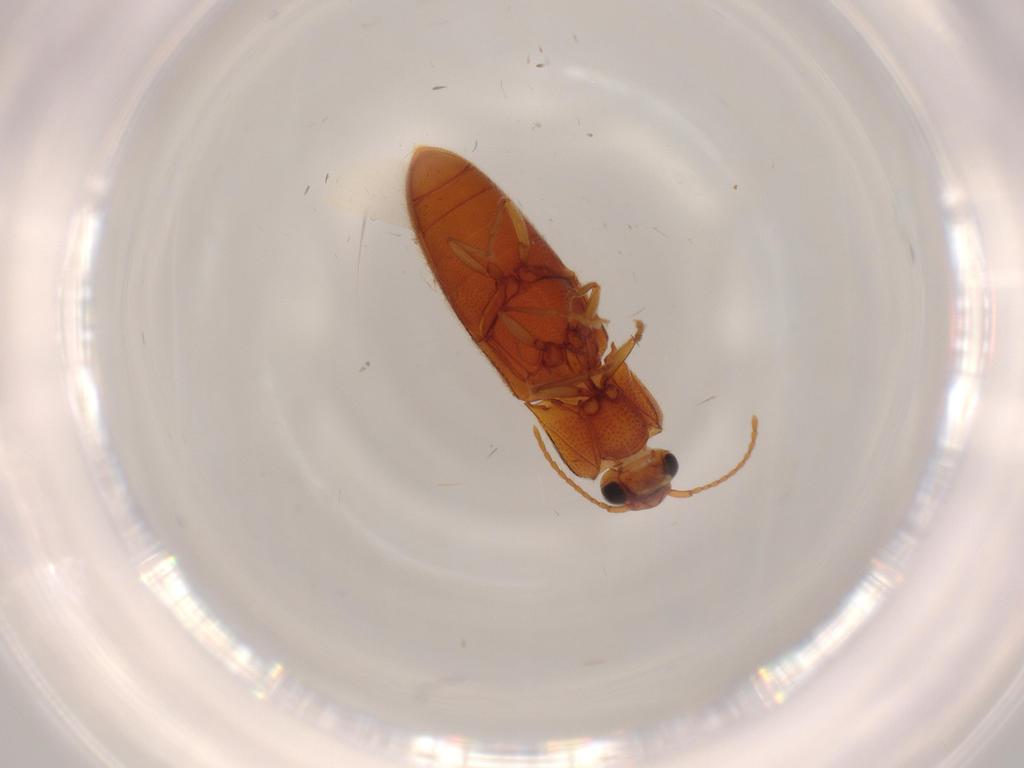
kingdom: Animalia
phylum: Arthropoda
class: Insecta
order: Coleoptera
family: Elateridae
